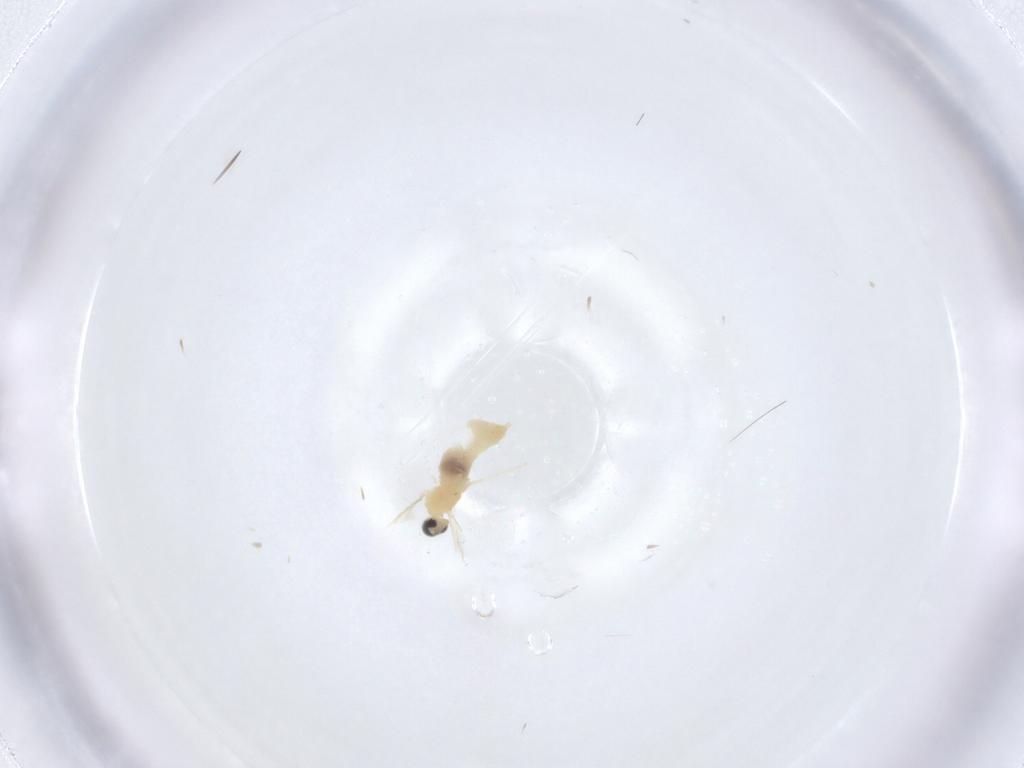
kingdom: Animalia
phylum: Arthropoda
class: Insecta
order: Diptera
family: Cecidomyiidae
